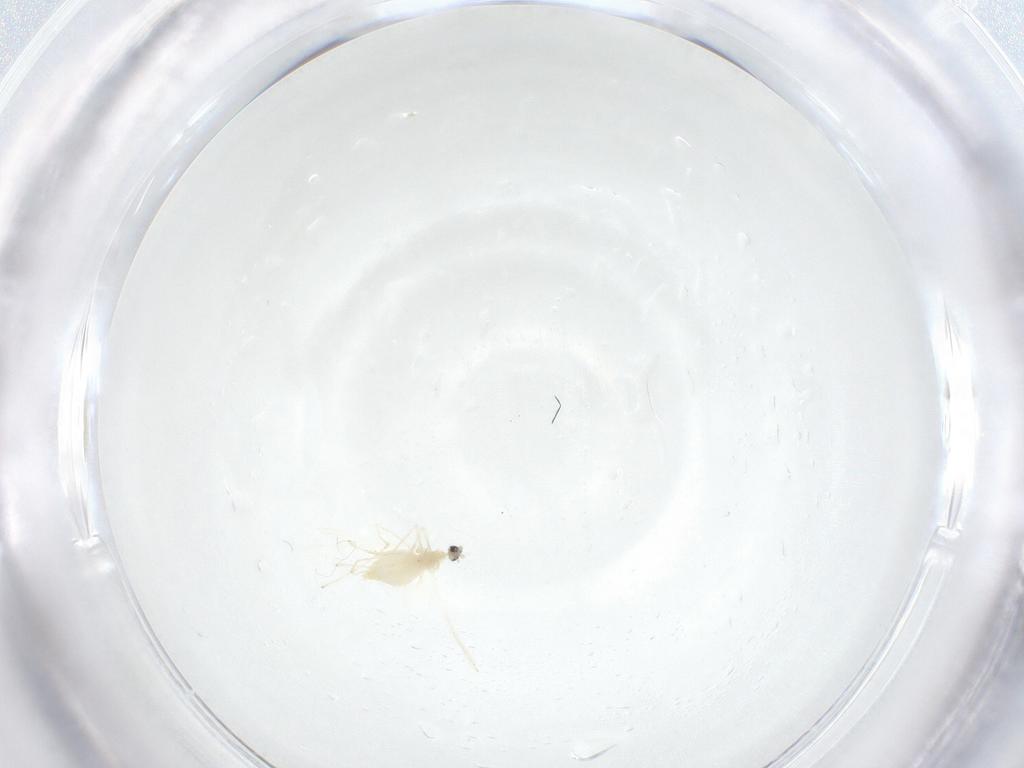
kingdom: Animalia
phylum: Arthropoda
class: Insecta
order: Diptera
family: Cecidomyiidae
